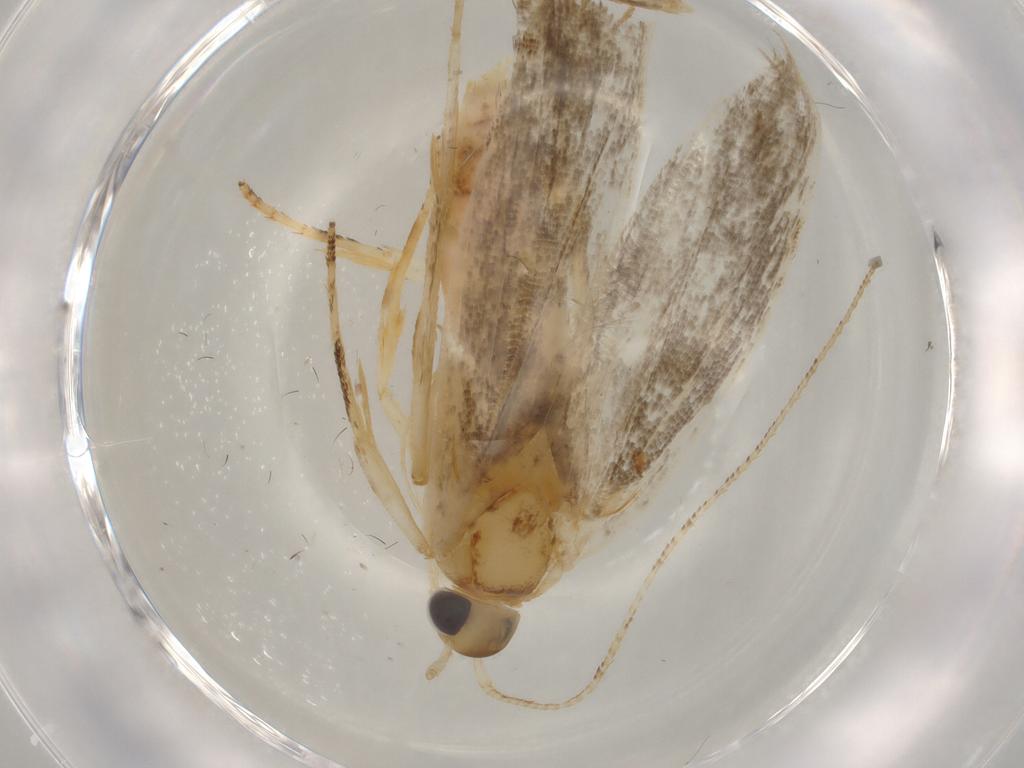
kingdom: Animalia
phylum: Arthropoda
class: Insecta
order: Lepidoptera
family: Gelechiidae
